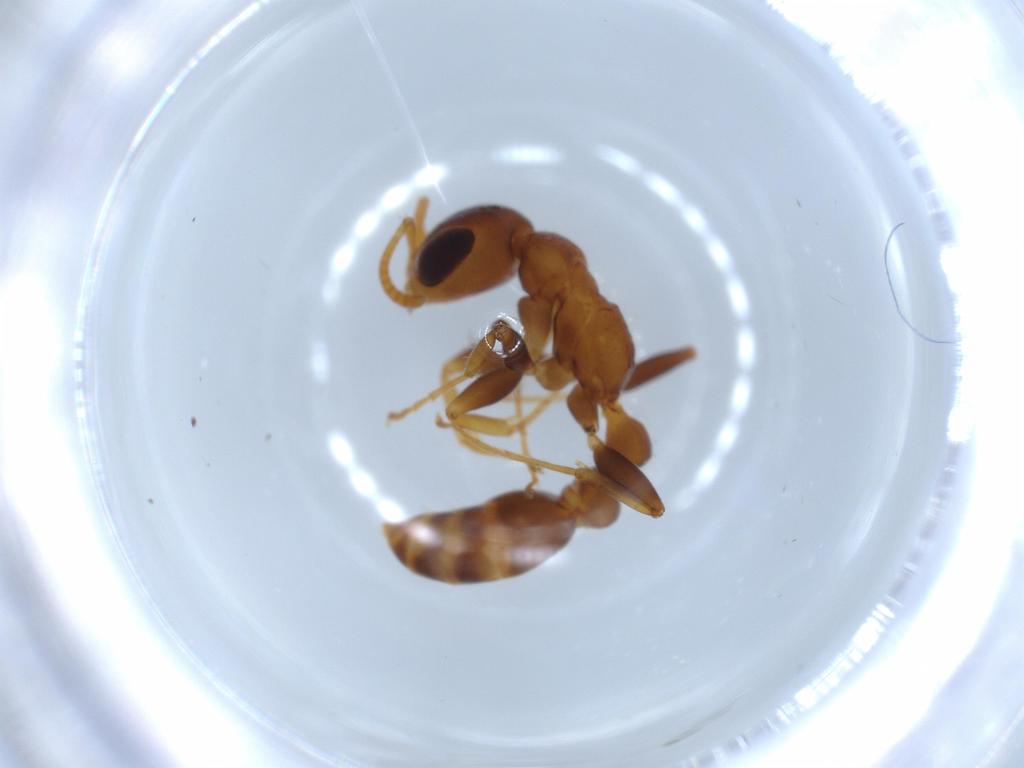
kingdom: Animalia
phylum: Arthropoda
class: Insecta
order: Hymenoptera
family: Formicidae
